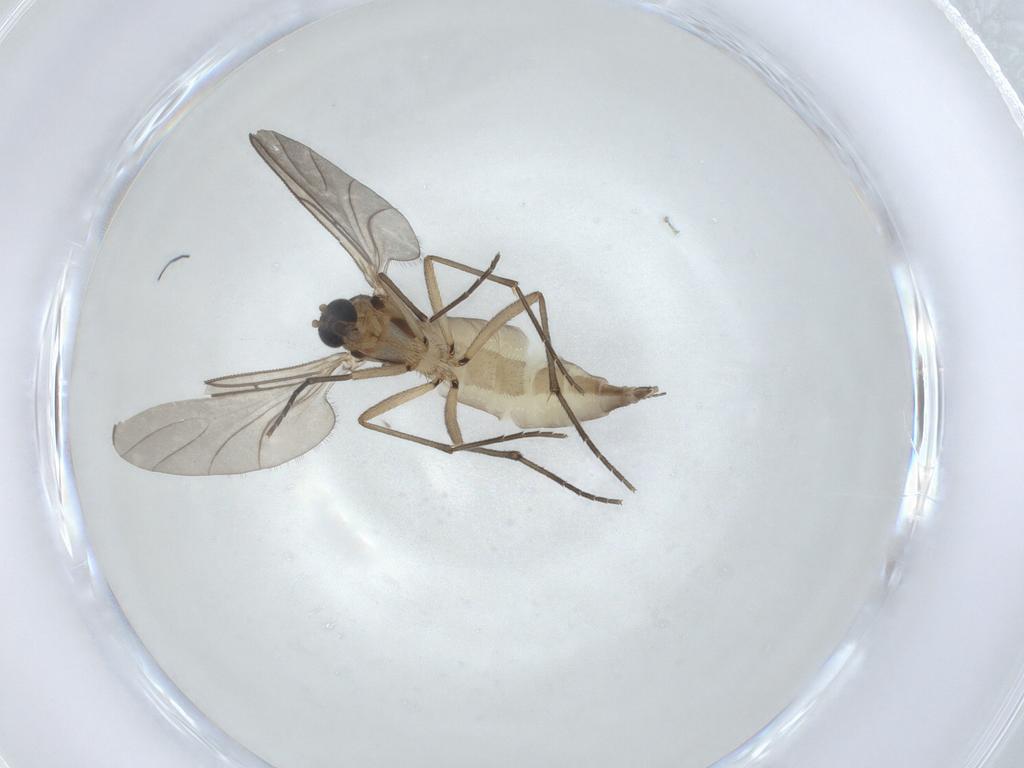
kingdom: Animalia
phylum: Arthropoda
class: Insecta
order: Diptera
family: Sciaridae
